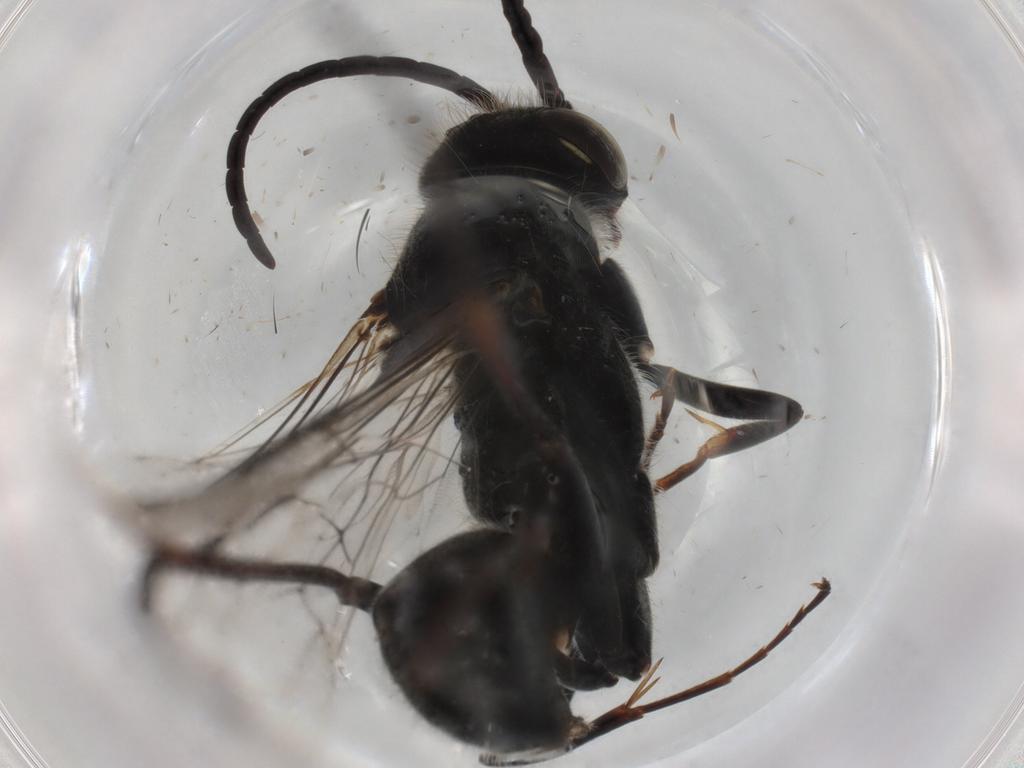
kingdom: Animalia
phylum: Arthropoda
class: Insecta
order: Hymenoptera
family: Pompilidae
